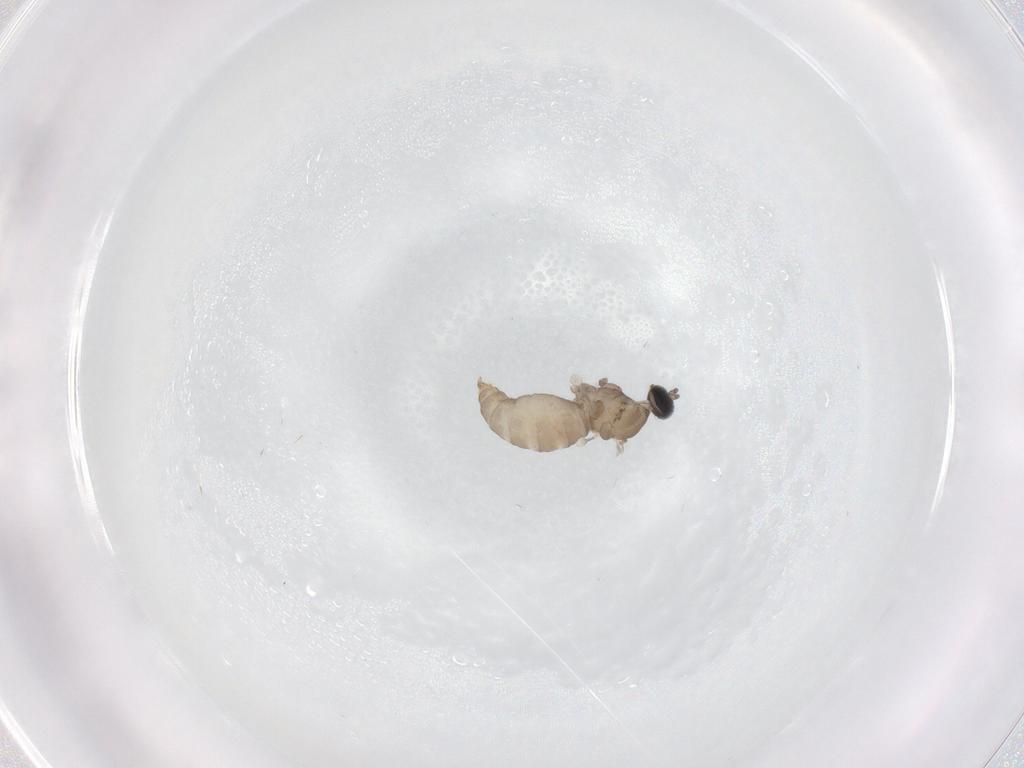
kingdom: Animalia
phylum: Arthropoda
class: Insecta
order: Diptera
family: Cecidomyiidae
